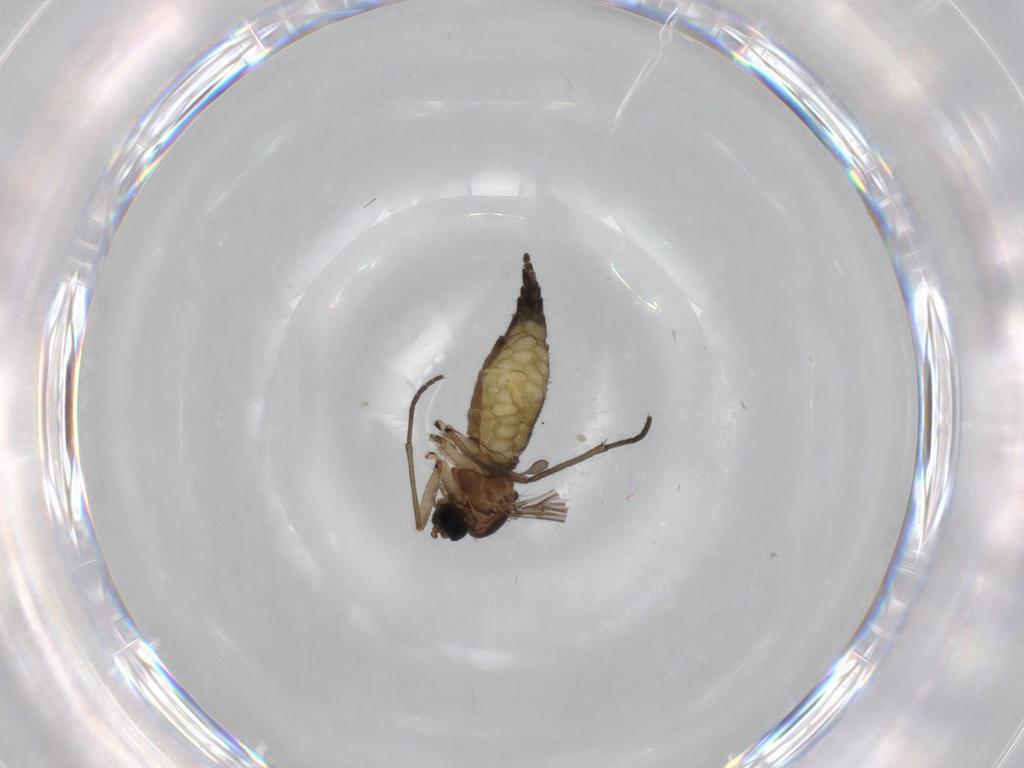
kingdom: Animalia
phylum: Arthropoda
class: Insecta
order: Diptera
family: Sciaridae
